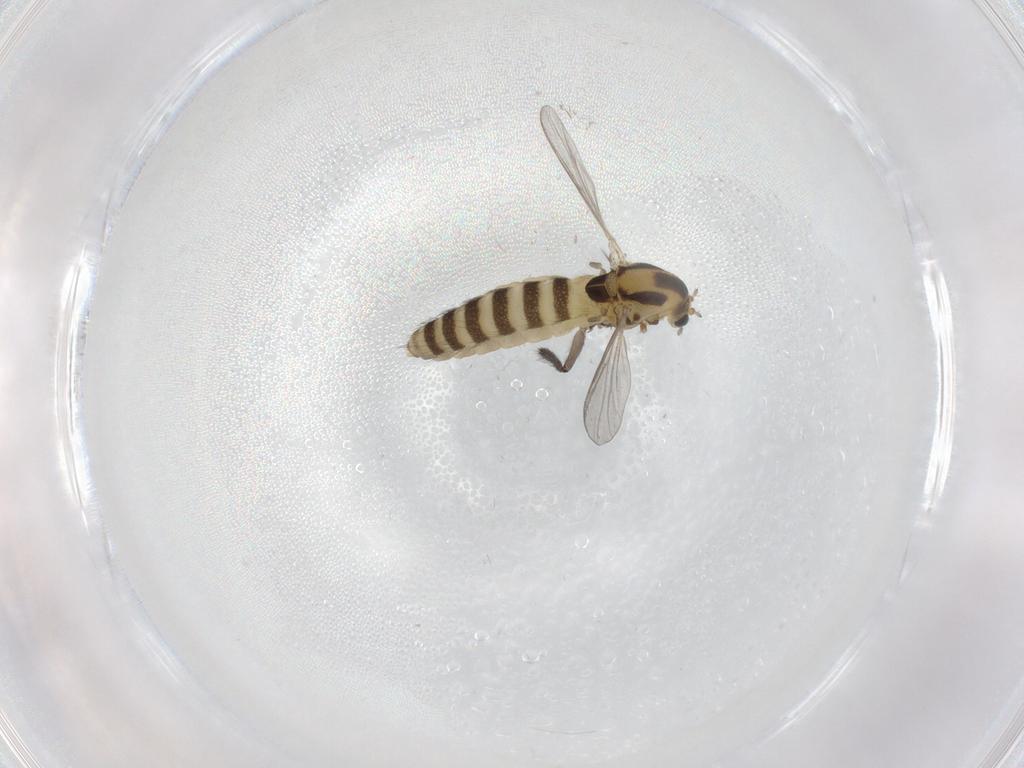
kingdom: Animalia
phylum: Arthropoda
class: Insecta
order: Diptera
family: Chironomidae
